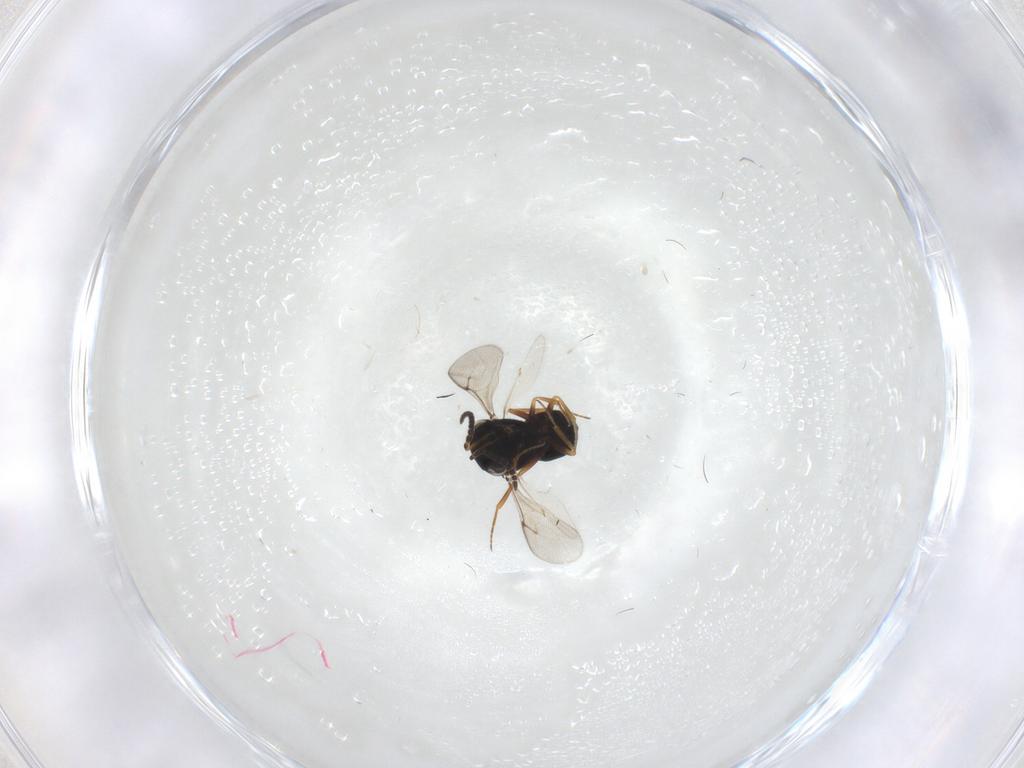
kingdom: Animalia
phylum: Arthropoda
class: Insecta
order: Hymenoptera
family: Scelionidae
